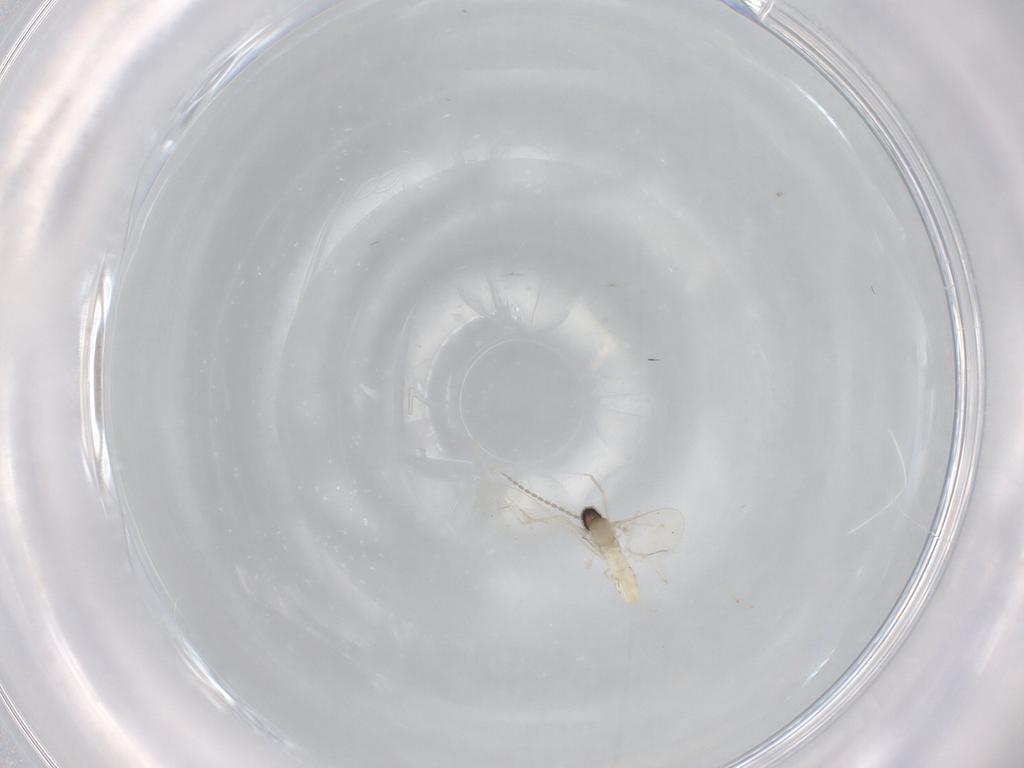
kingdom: Animalia
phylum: Arthropoda
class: Insecta
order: Diptera
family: Cecidomyiidae
